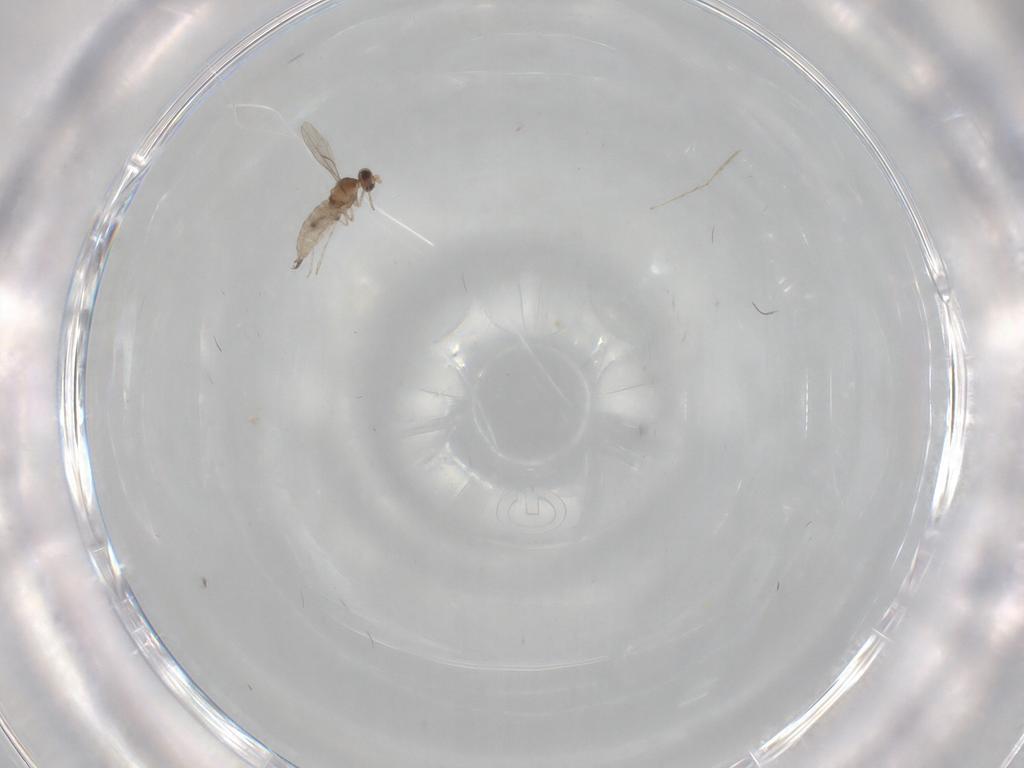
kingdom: Animalia
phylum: Arthropoda
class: Insecta
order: Diptera
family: Cecidomyiidae
